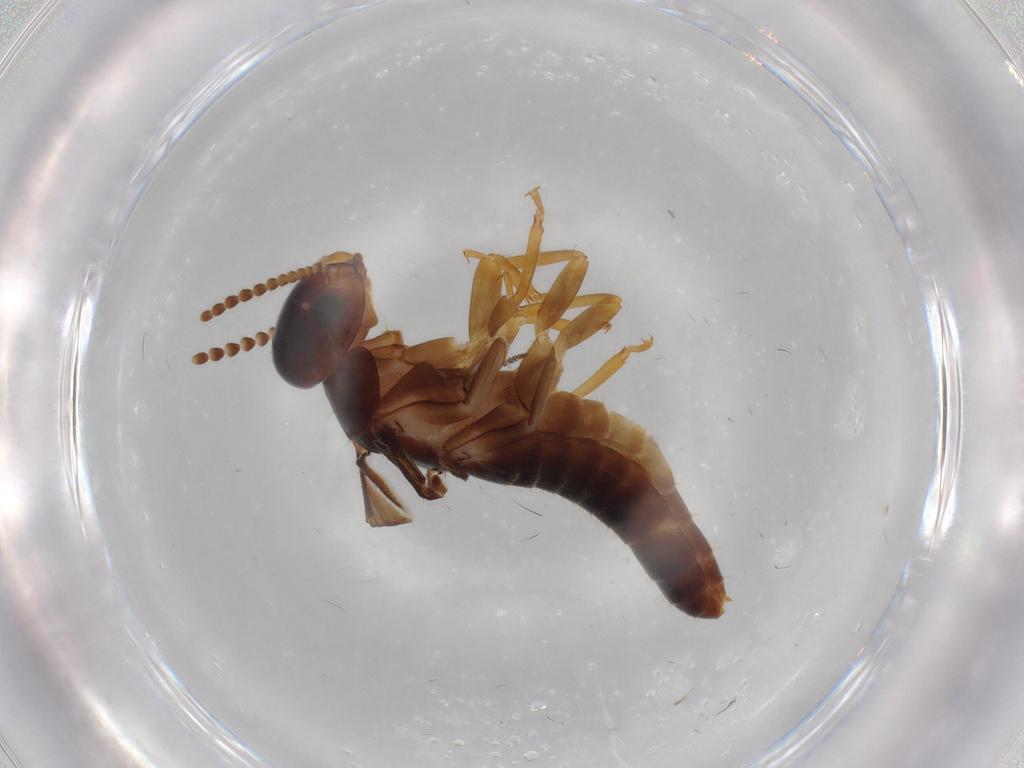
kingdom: Animalia
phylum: Arthropoda
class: Insecta
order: Blattodea
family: Kalotermitidae
